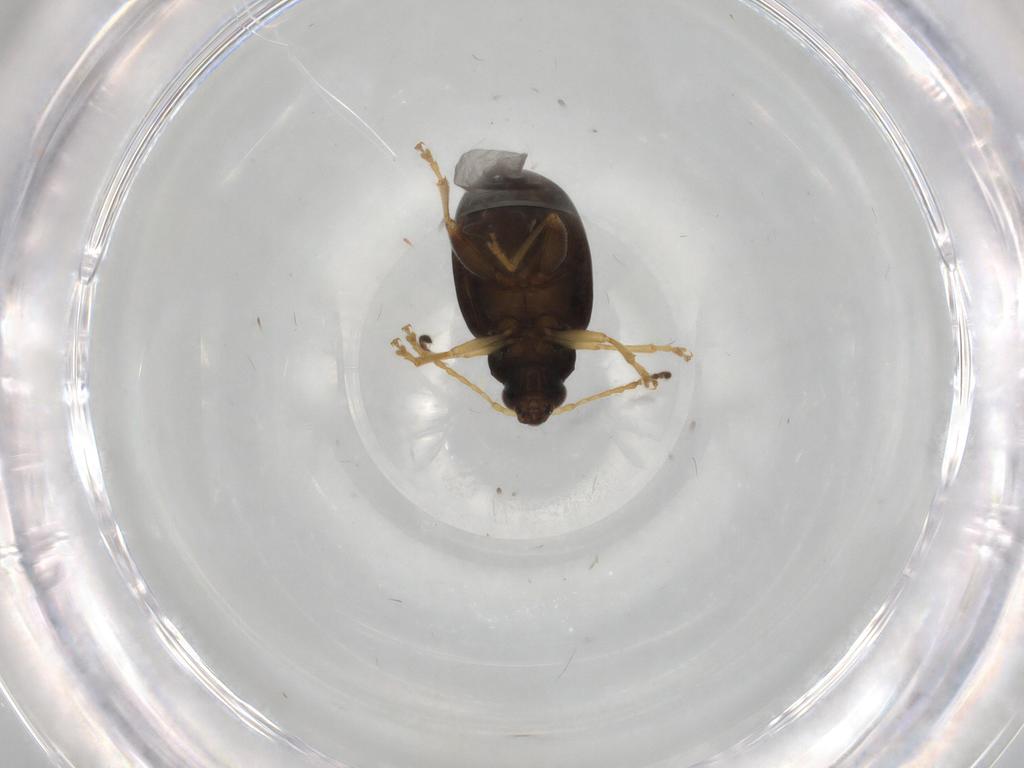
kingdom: Animalia
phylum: Arthropoda
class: Insecta
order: Coleoptera
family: Chrysomelidae
